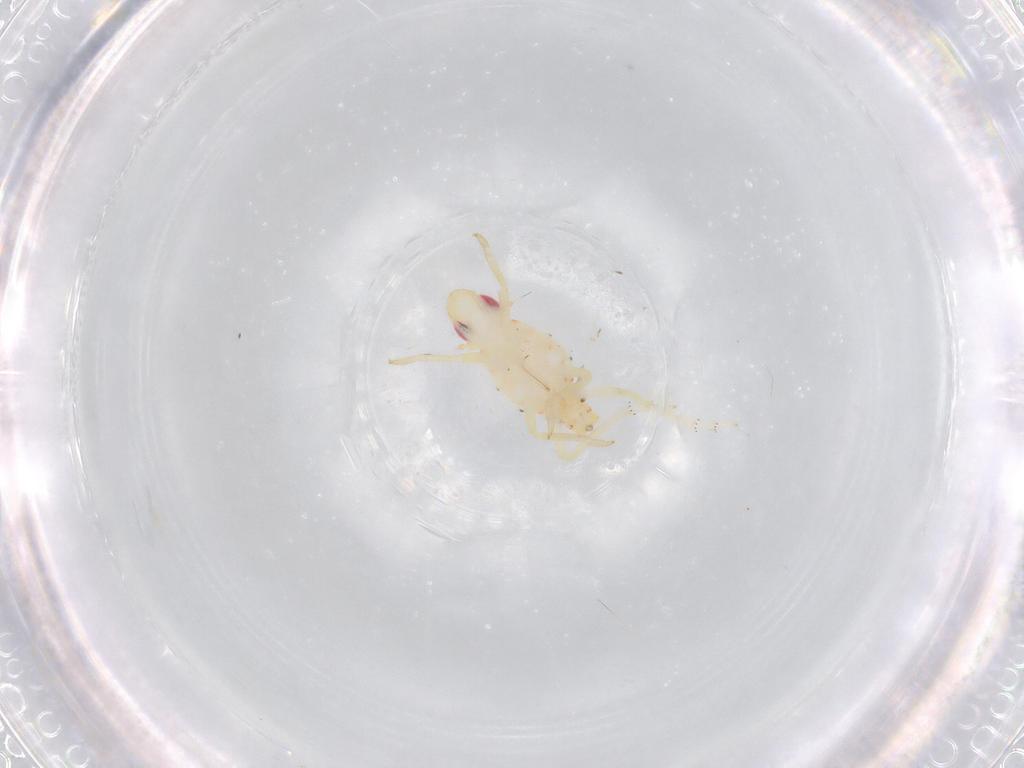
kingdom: Animalia
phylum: Arthropoda
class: Insecta
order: Hemiptera
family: Tropiduchidae
